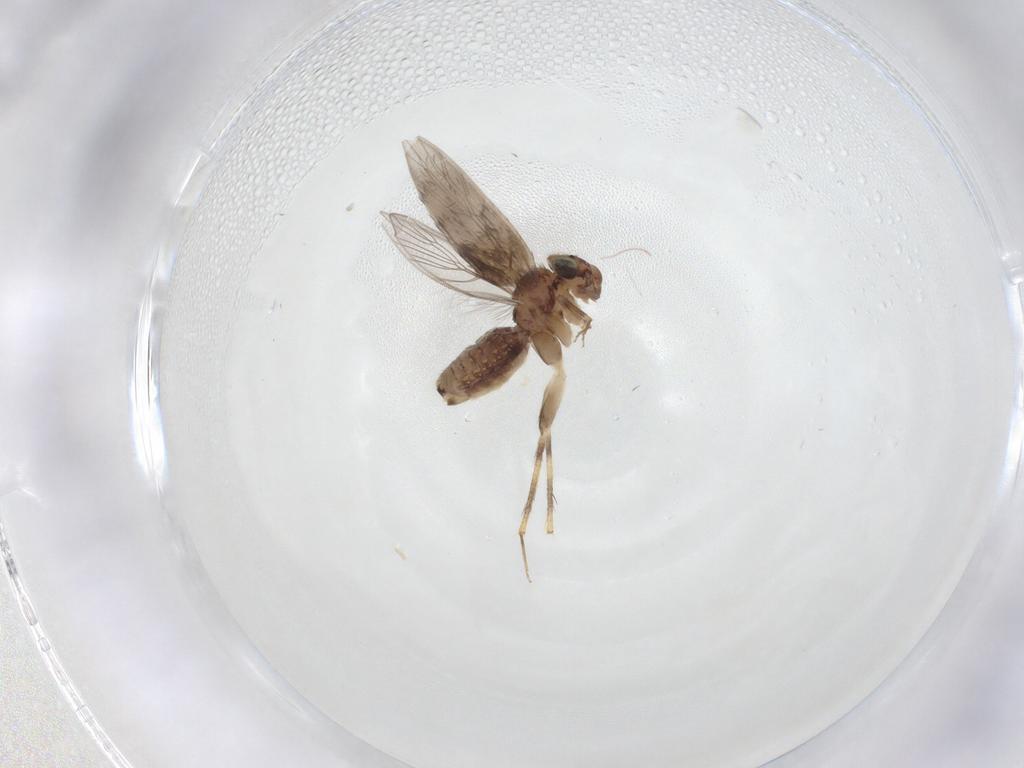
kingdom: Animalia
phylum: Arthropoda
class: Insecta
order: Psocodea
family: Lepidopsocidae
